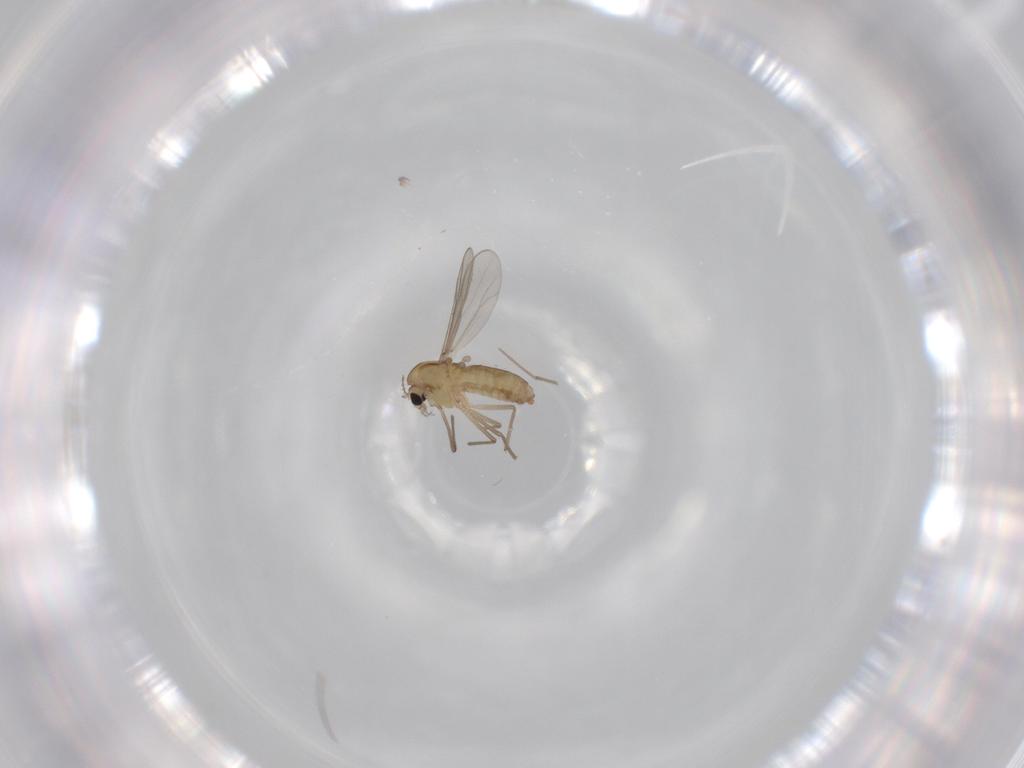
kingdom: Animalia
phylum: Arthropoda
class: Insecta
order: Diptera
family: Chironomidae
